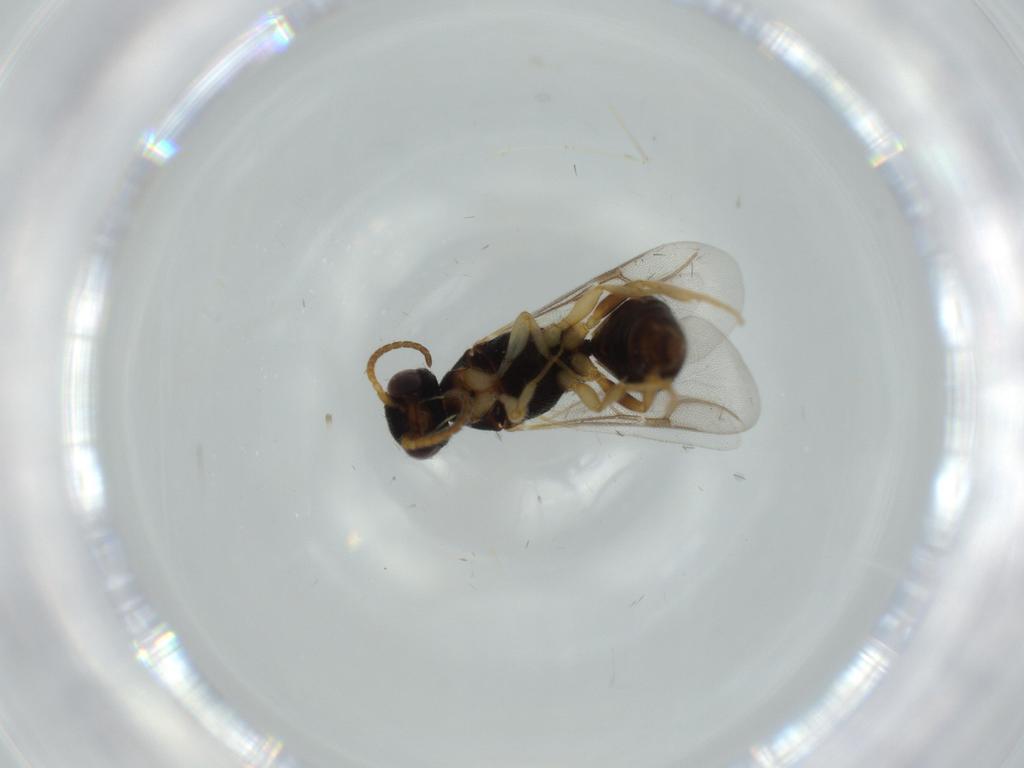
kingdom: Animalia
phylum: Arthropoda
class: Insecta
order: Hymenoptera
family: Bethylidae
